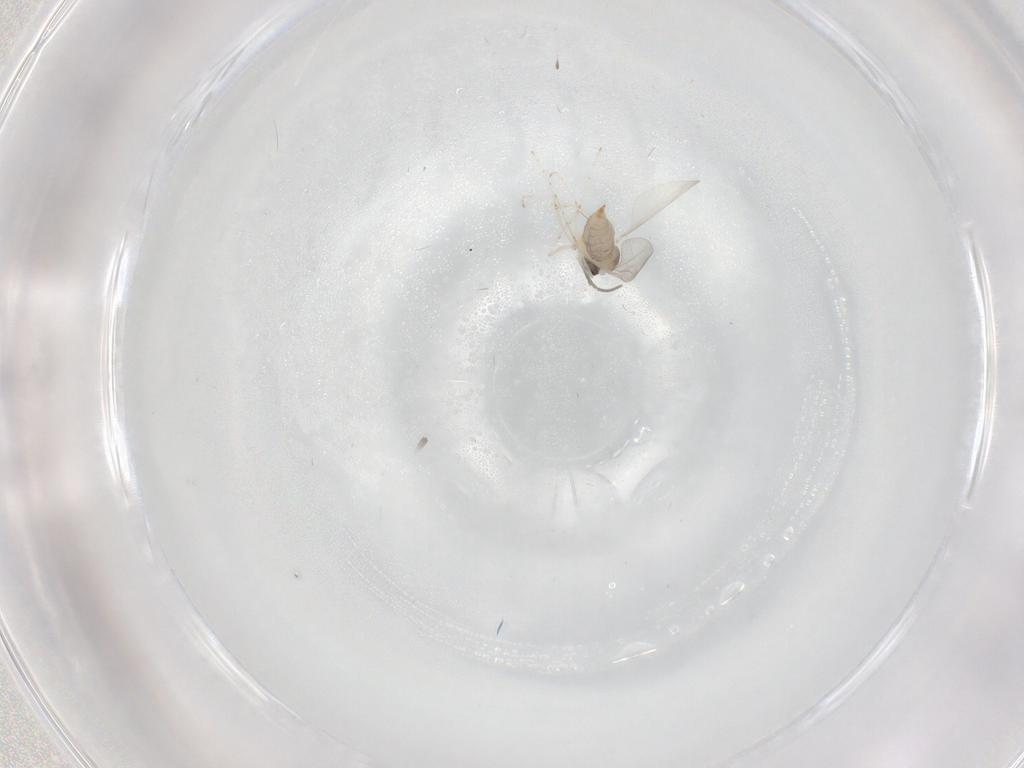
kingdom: Animalia
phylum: Arthropoda
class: Insecta
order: Diptera
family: Cecidomyiidae
